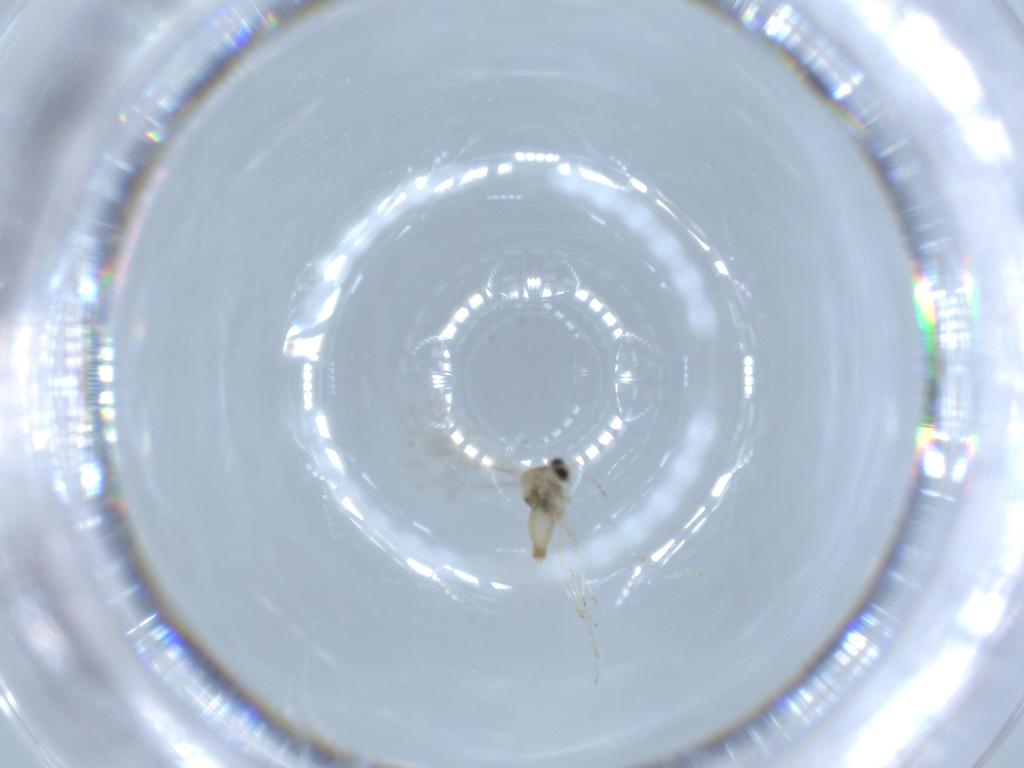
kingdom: Animalia
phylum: Arthropoda
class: Insecta
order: Diptera
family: Cecidomyiidae
